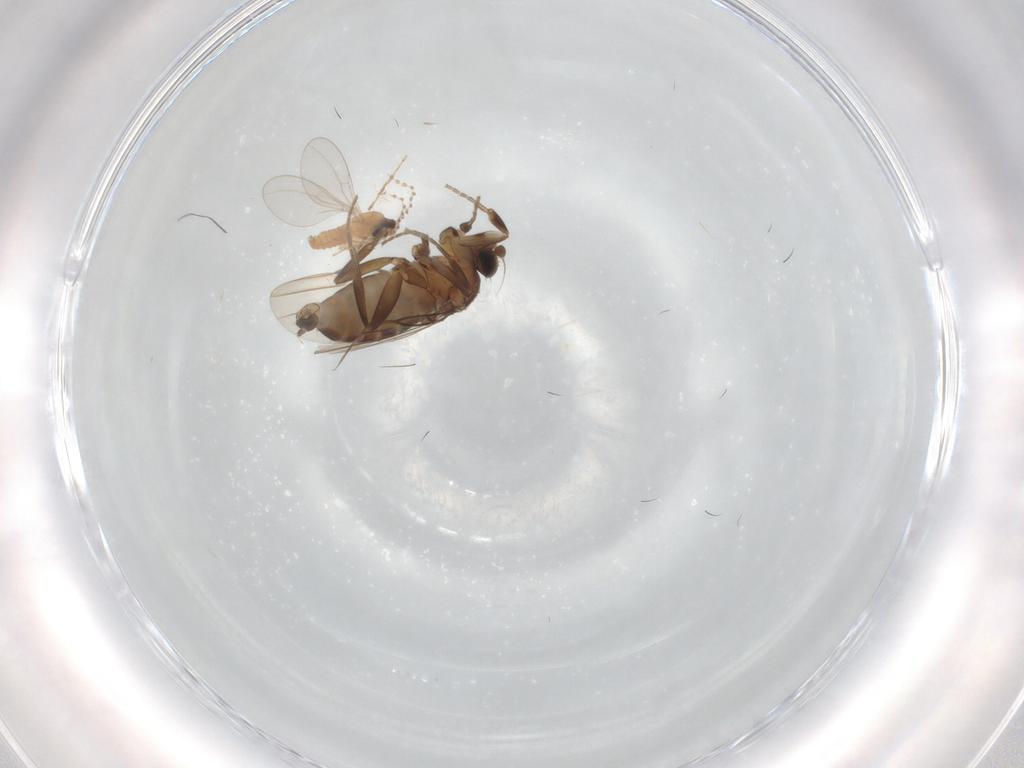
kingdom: Animalia
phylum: Arthropoda
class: Insecta
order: Diptera
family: Cecidomyiidae
